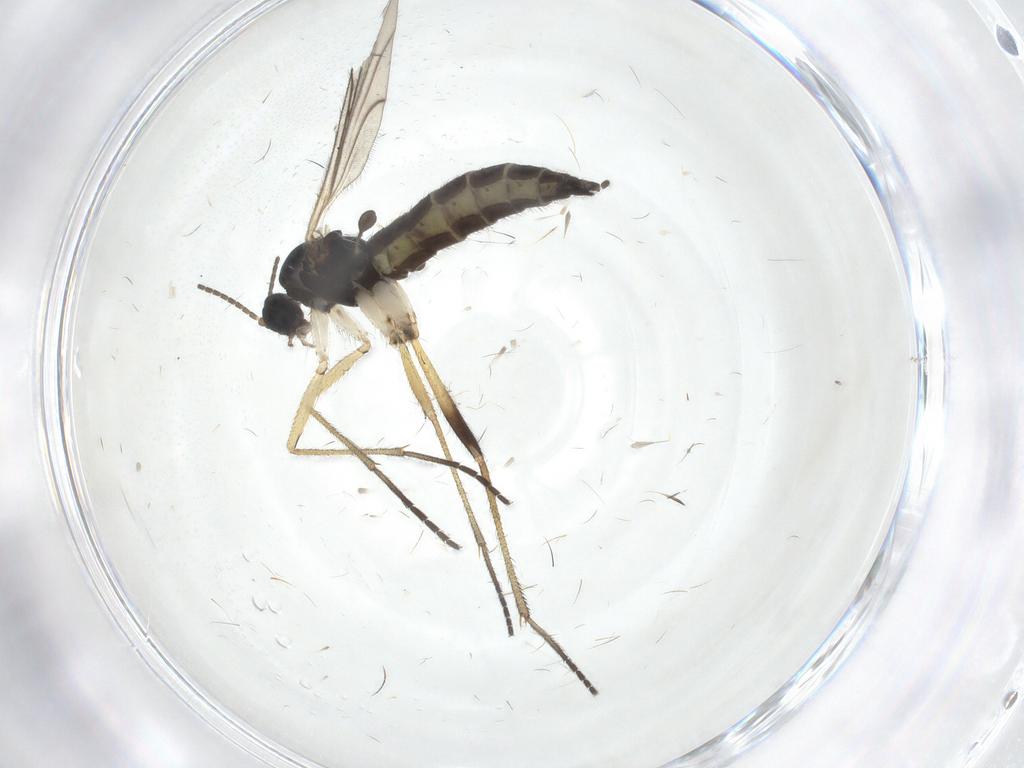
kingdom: Animalia
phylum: Arthropoda
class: Insecta
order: Diptera
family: Sciaridae
